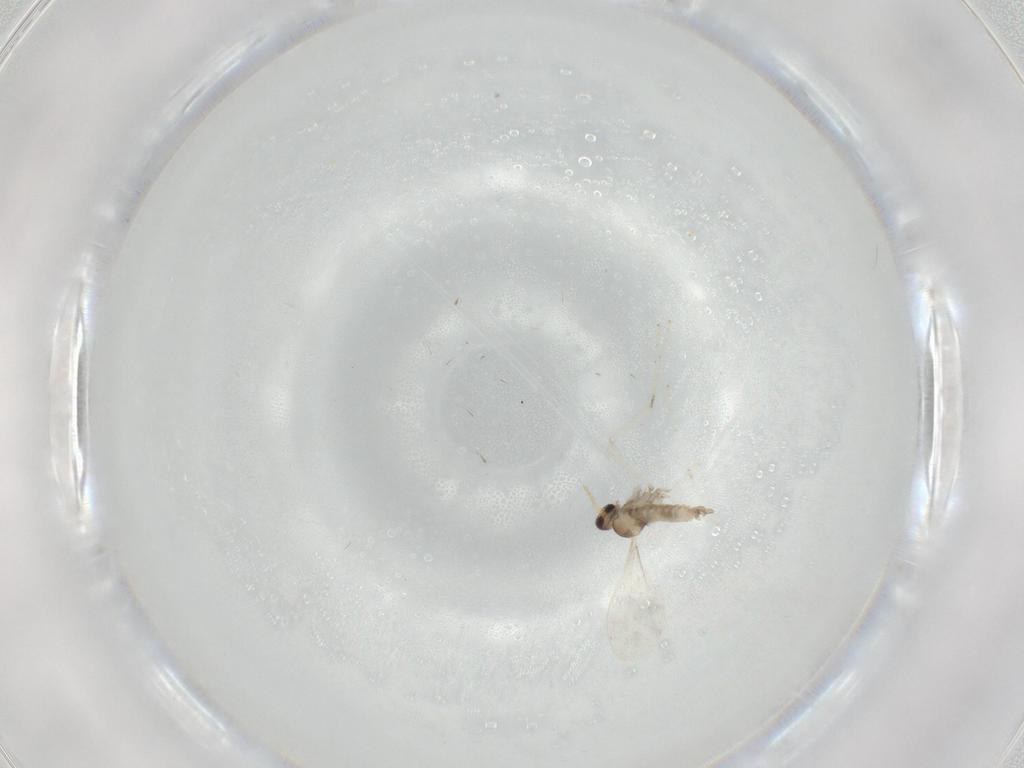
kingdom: Animalia
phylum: Arthropoda
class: Insecta
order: Diptera
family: Cecidomyiidae
